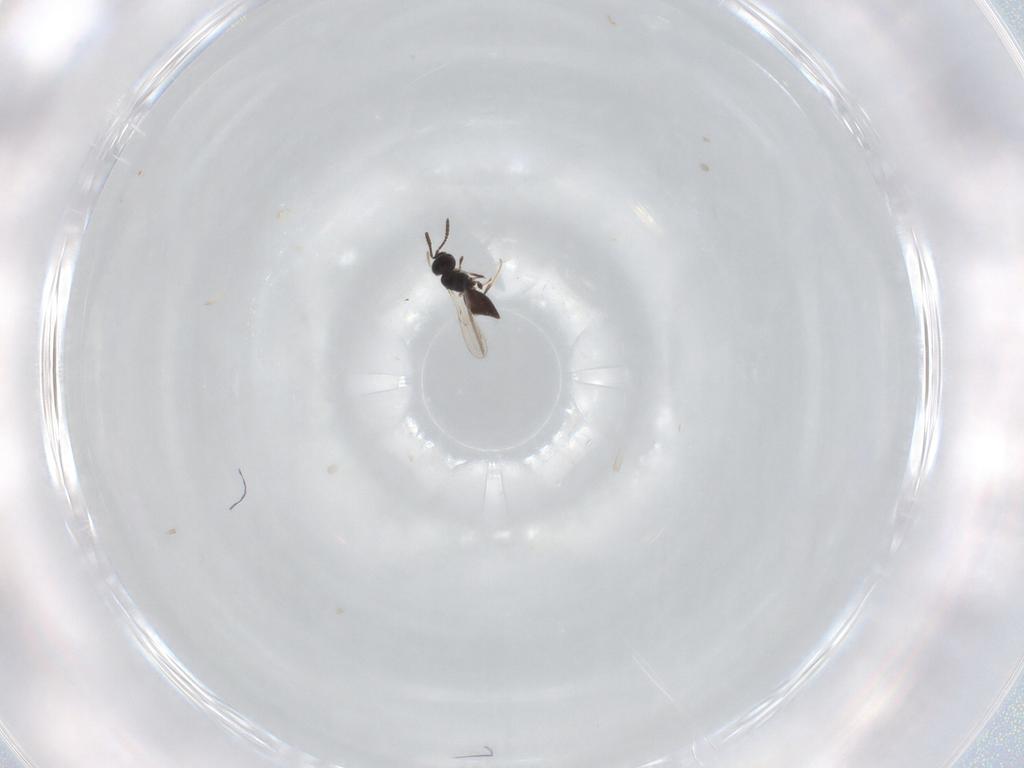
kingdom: Animalia
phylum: Arthropoda
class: Insecta
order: Hymenoptera
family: Scelionidae
